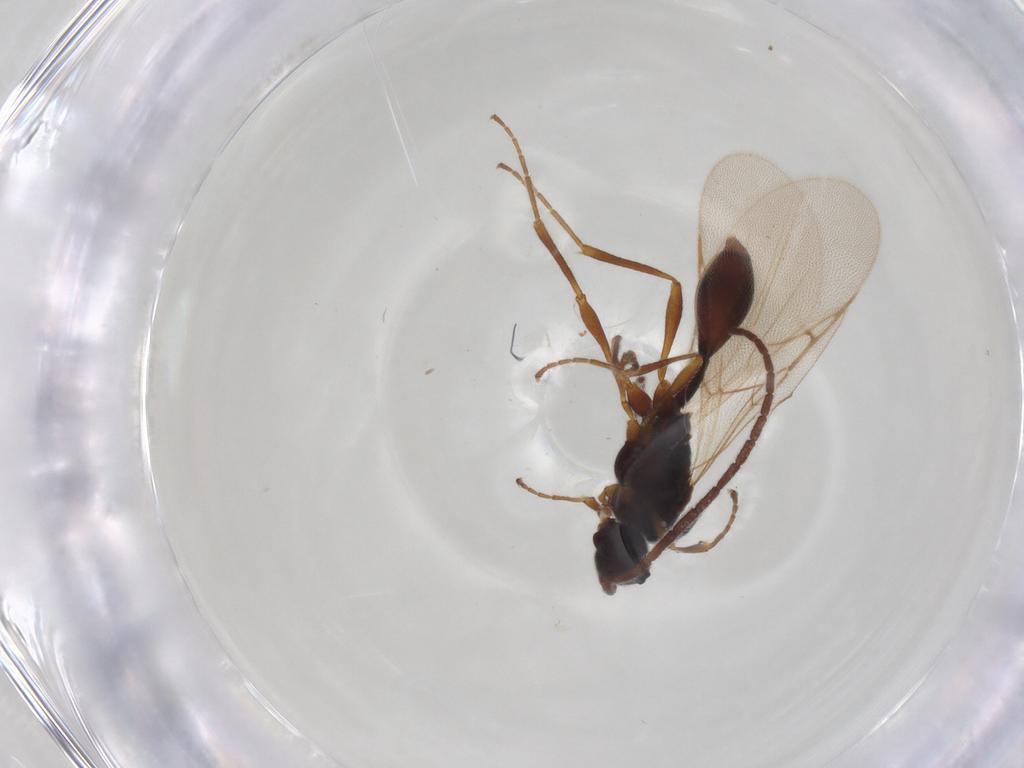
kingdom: Animalia
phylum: Arthropoda
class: Insecta
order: Hymenoptera
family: Diapriidae
